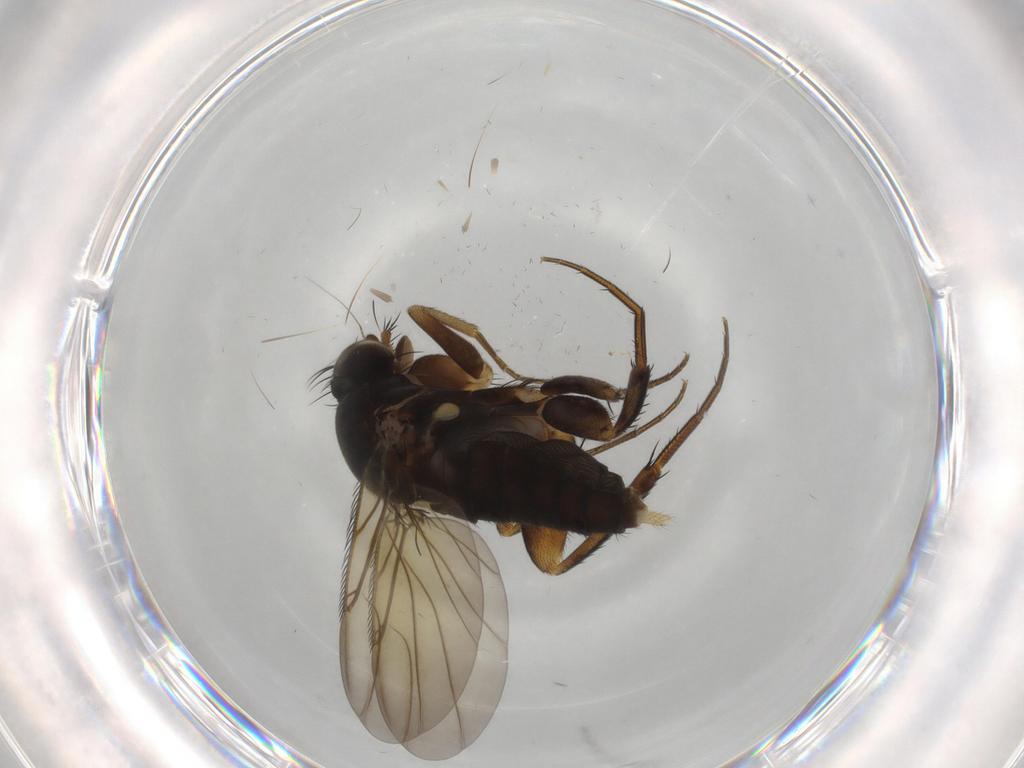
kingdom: Animalia
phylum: Arthropoda
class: Insecta
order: Diptera
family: Phoridae
